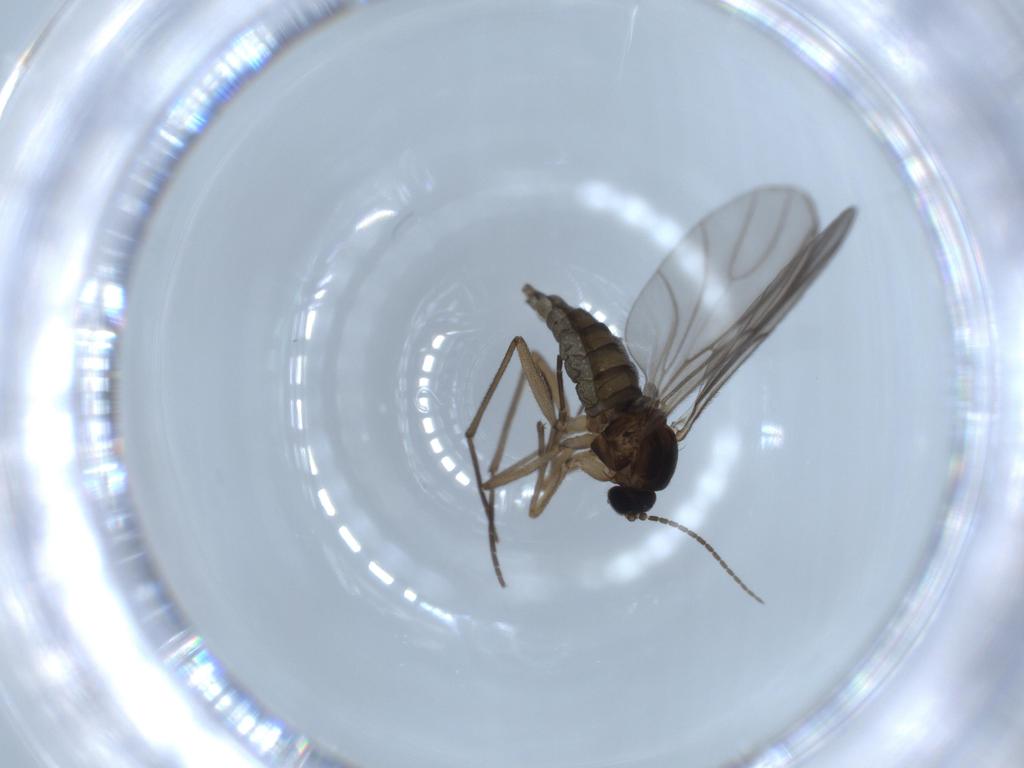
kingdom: Animalia
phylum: Arthropoda
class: Insecta
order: Diptera
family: Sciaridae
